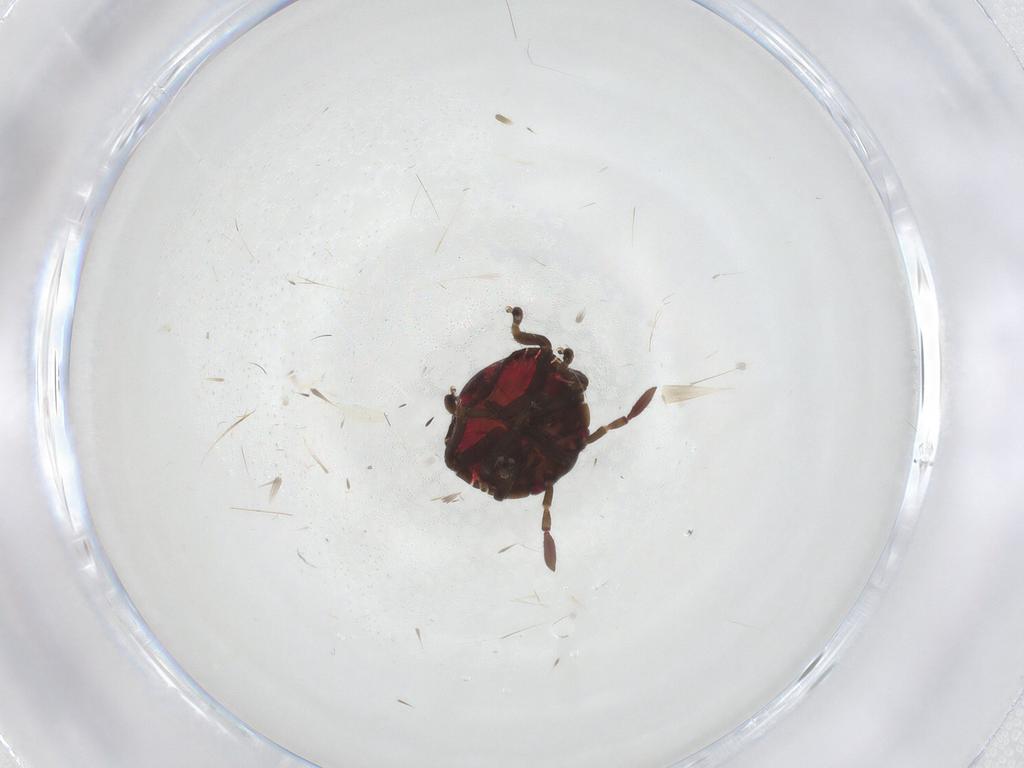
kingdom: Animalia
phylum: Arthropoda
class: Insecta
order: Hemiptera
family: Pentatomidae
